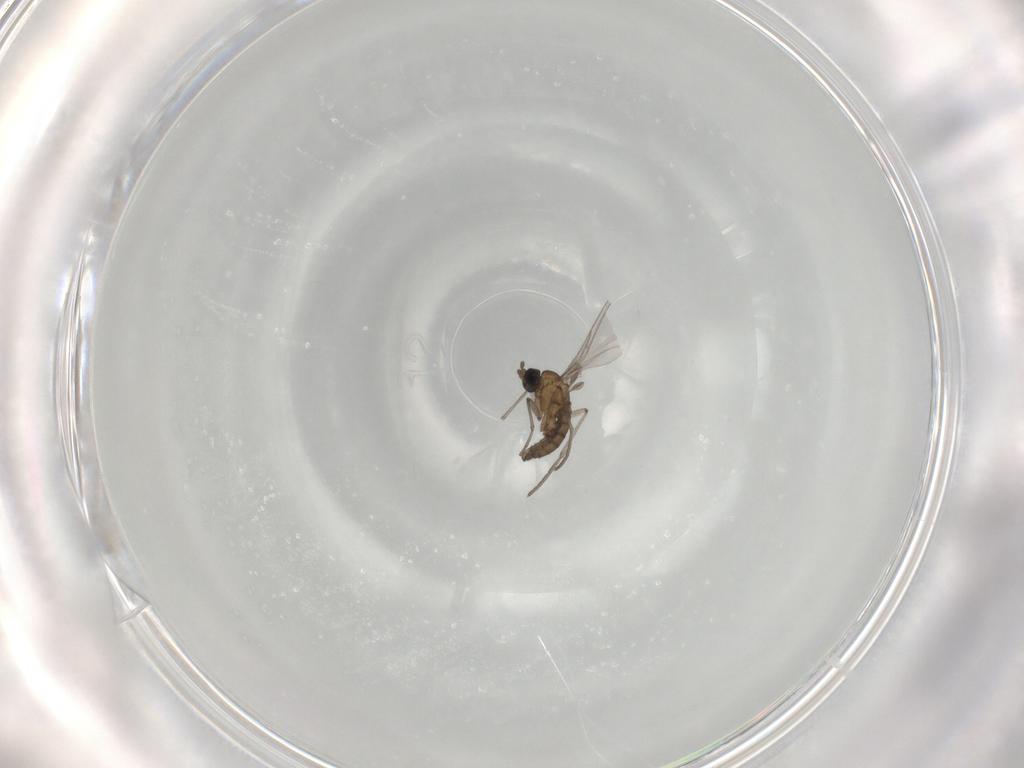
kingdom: Animalia
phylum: Arthropoda
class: Insecta
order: Diptera
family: Sciaridae
